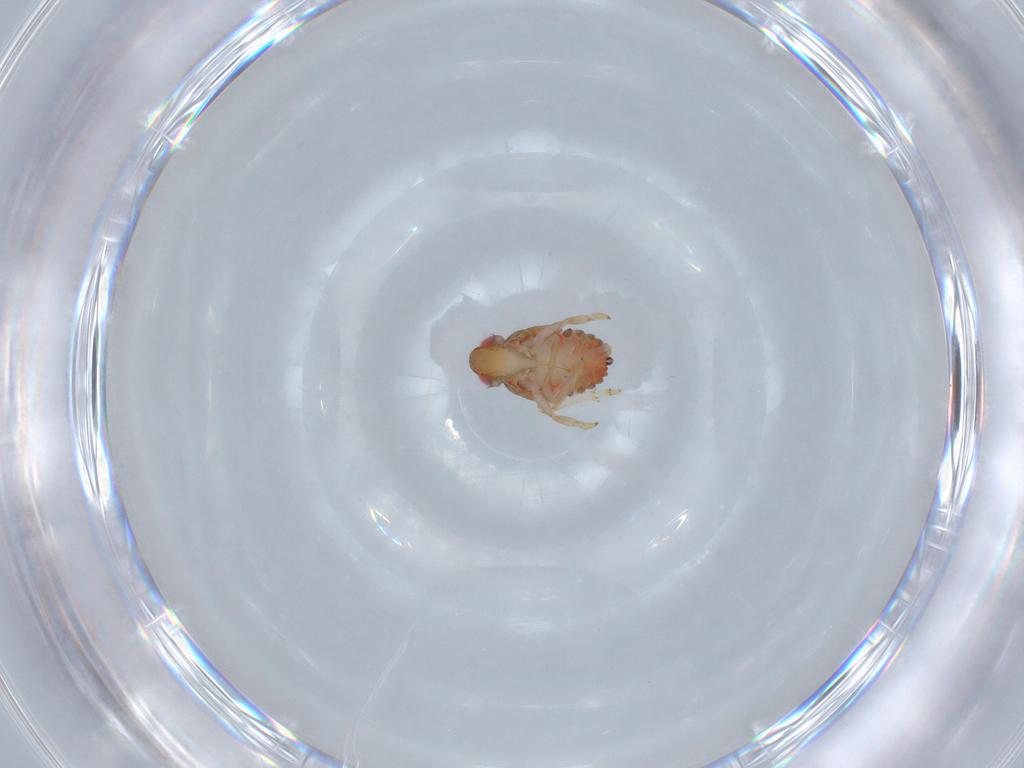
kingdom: Animalia
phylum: Arthropoda
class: Insecta
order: Hemiptera
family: Issidae
